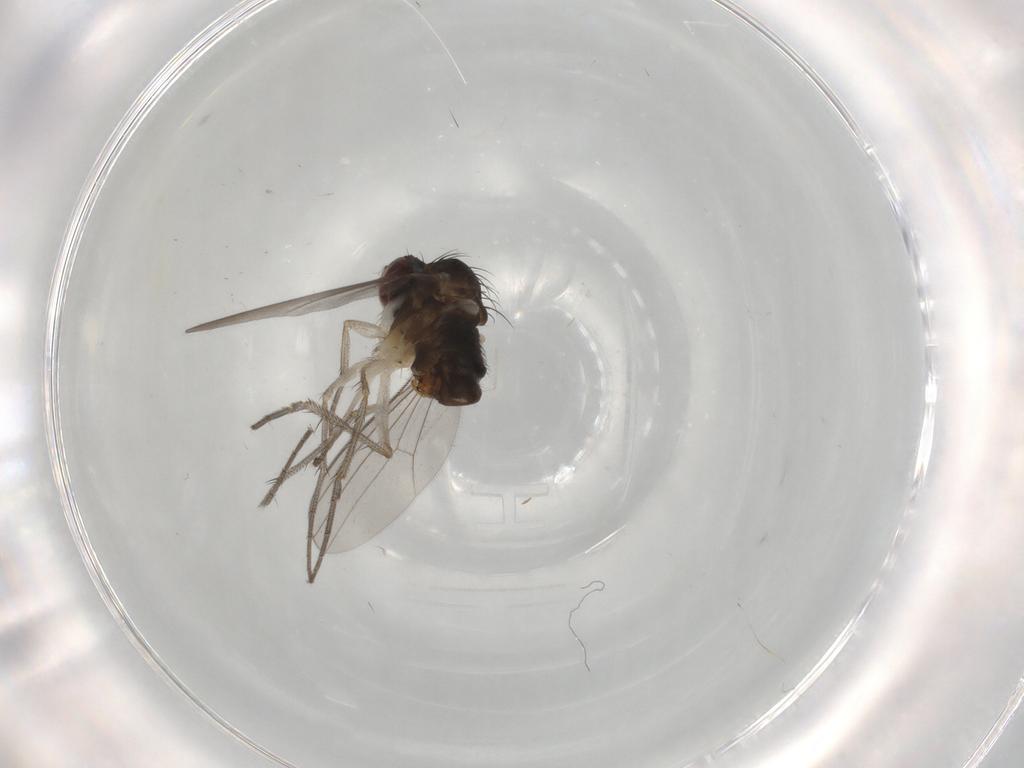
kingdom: Animalia
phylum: Arthropoda
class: Insecta
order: Diptera
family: Dolichopodidae
